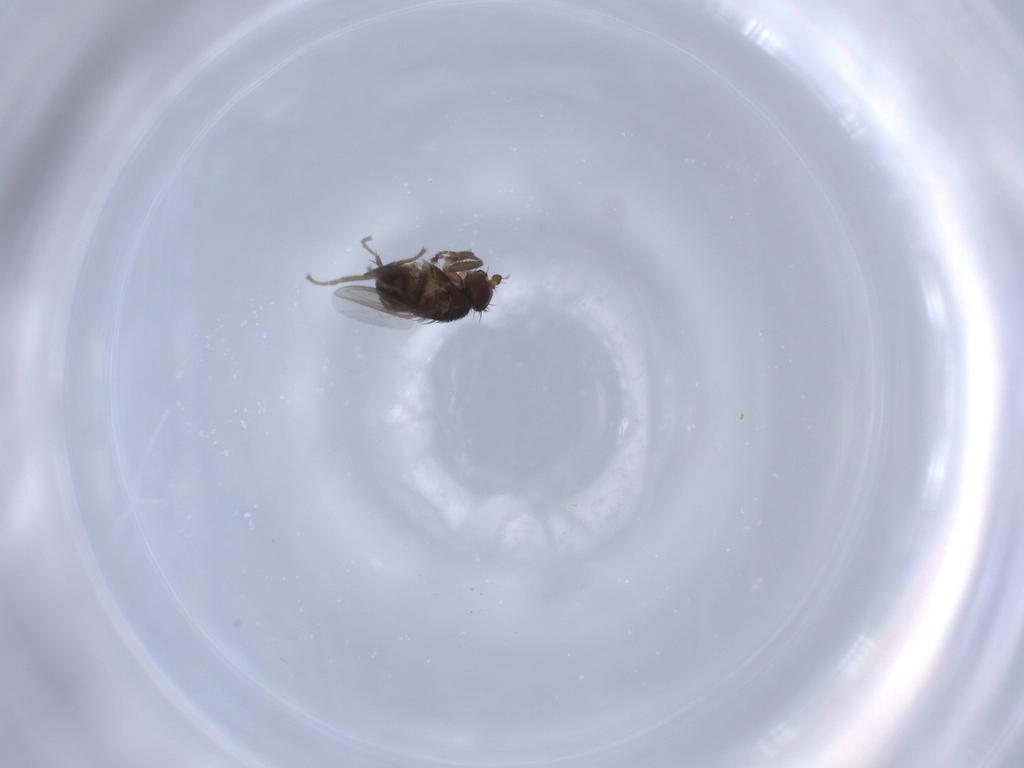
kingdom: Animalia
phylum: Arthropoda
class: Insecta
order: Diptera
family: Sphaeroceridae
